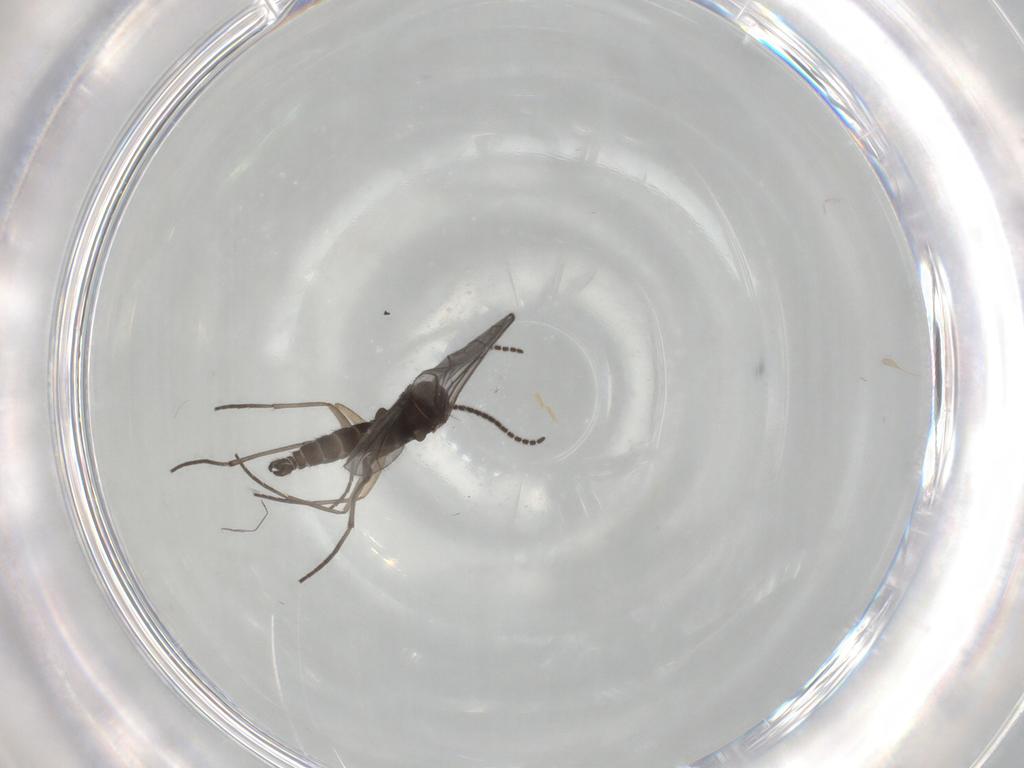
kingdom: Animalia
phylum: Arthropoda
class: Insecta
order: Diptera
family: Sciaridae
